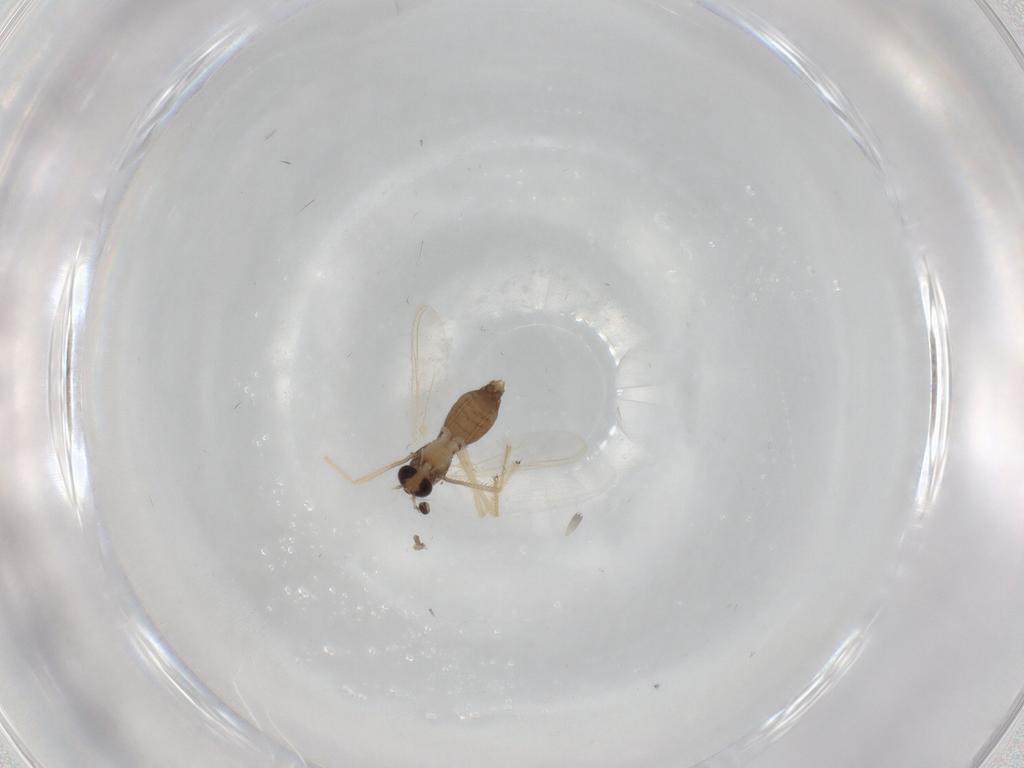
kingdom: Animalia
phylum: Arthropoda
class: Insecta
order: Diptera
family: Chironomidae
